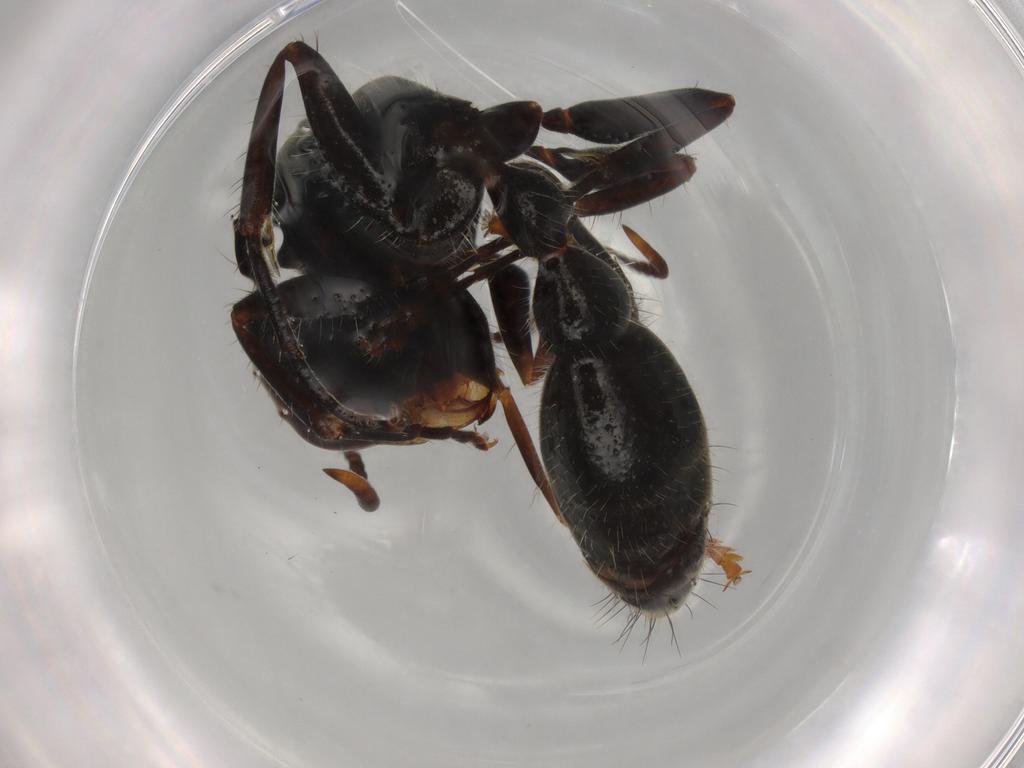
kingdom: Animalia
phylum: Arthropoda
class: Insecta
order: Hymenoptera
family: Formicidae
